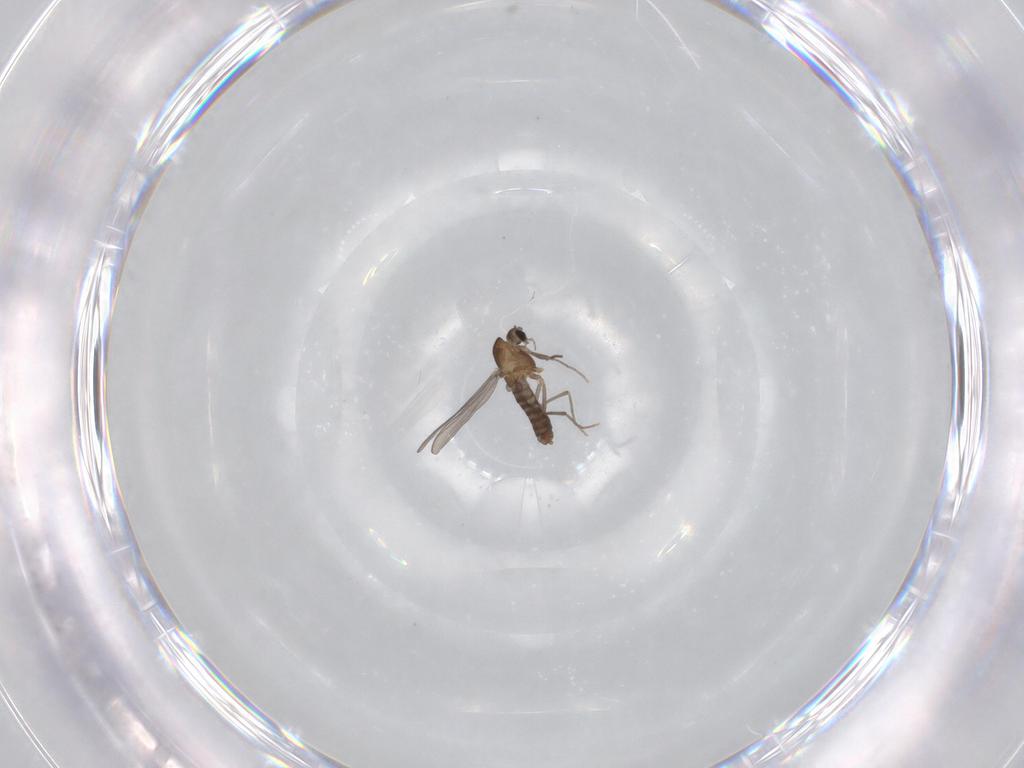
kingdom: Animalia
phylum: Arthropoda
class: Insecta
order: Diptera
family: Chironomidae
